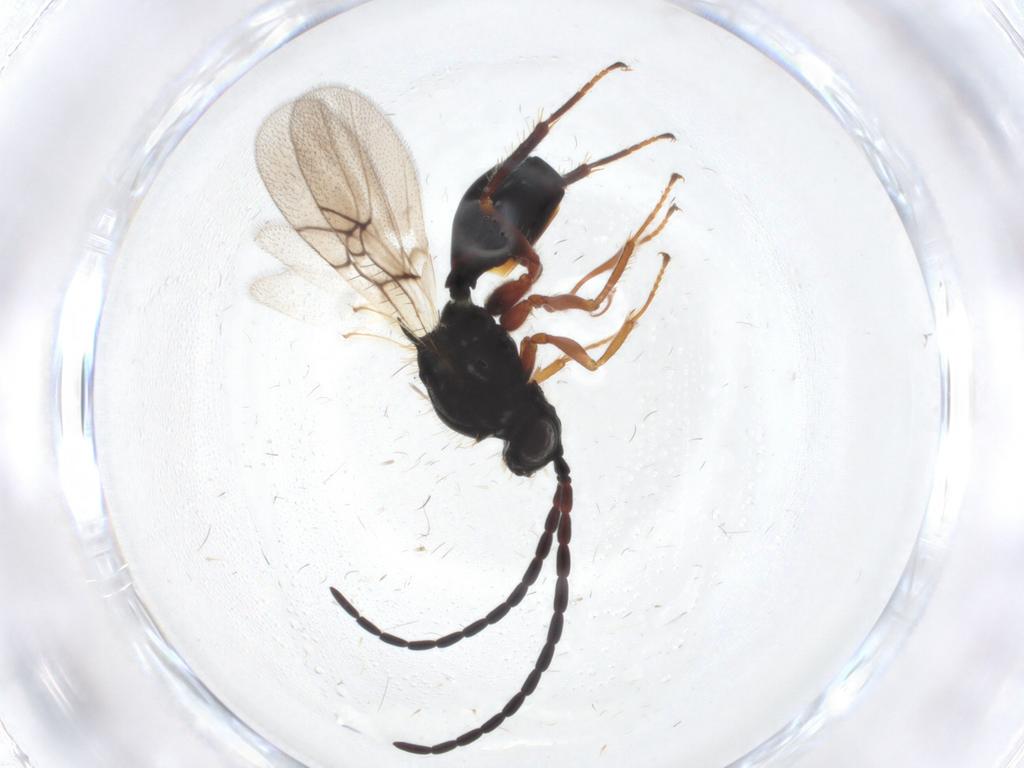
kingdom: Animalia
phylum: Arthropoda
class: Insecta
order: Hymenoptera
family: Figitidae
